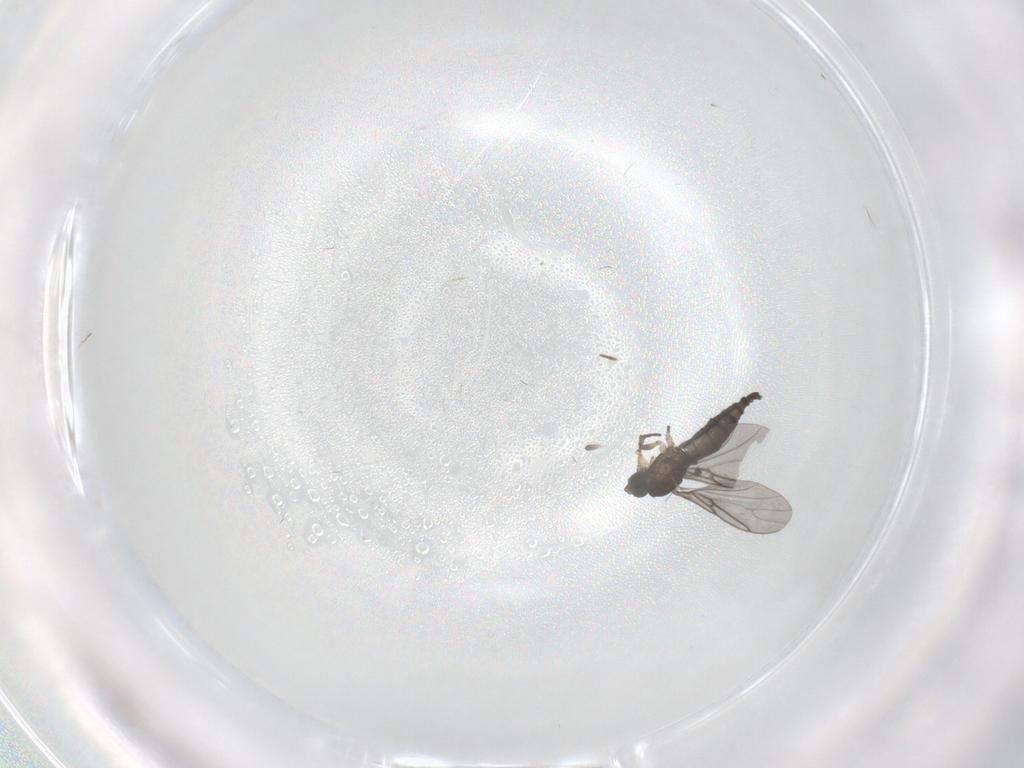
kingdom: Animalia
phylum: Arthropoda
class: Insecta
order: Diptera
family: Sciaridae
